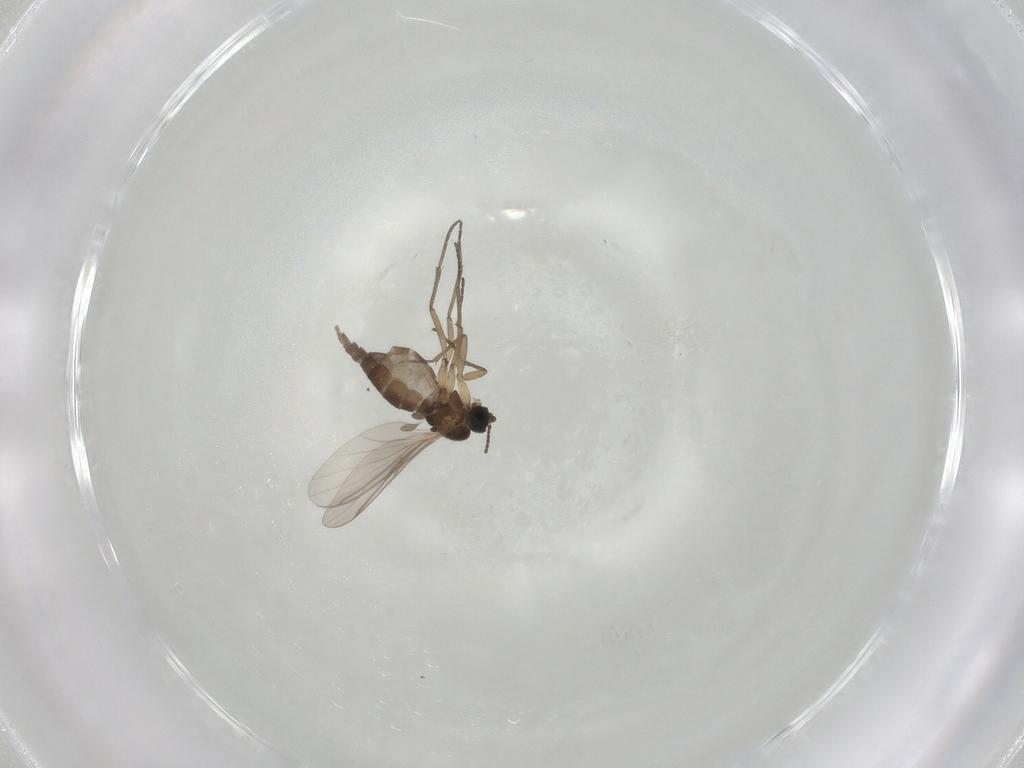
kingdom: Animalia
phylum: Arthropoda
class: Insecta
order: Diptera
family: Sciaridae
